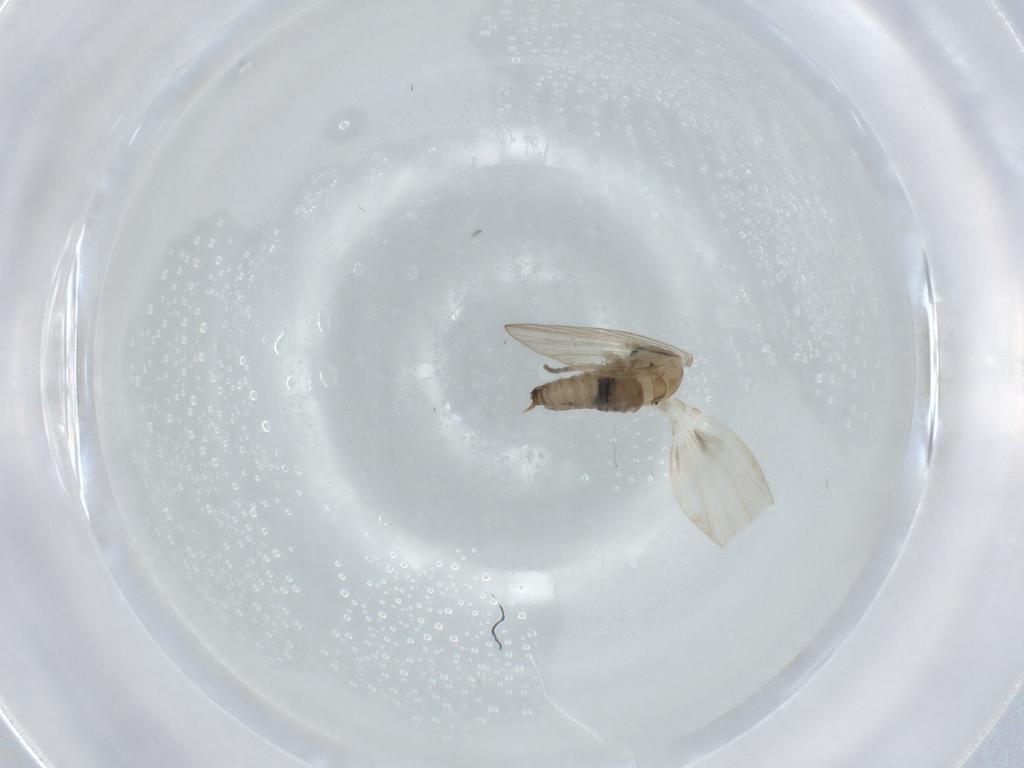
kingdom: Animalia
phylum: Arthropoda
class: Insecta
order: Diptera
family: Psychodidae
